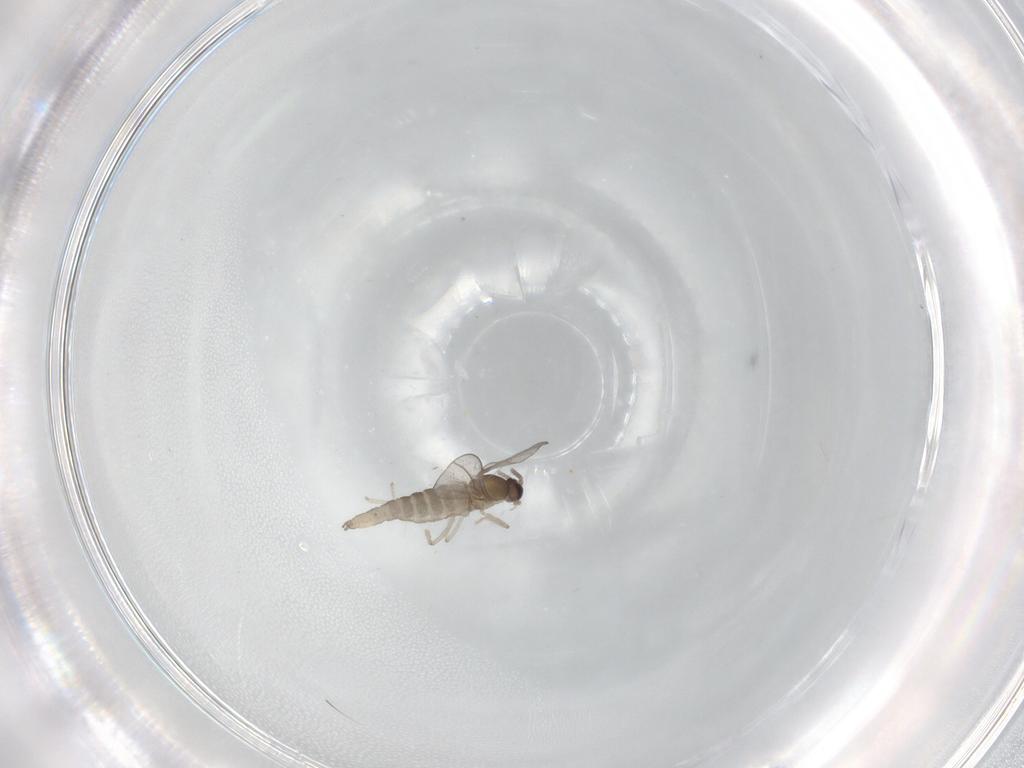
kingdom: Animalia
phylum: Arthropoda
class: Insecta
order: Diptera
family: Cecidomyiidae
